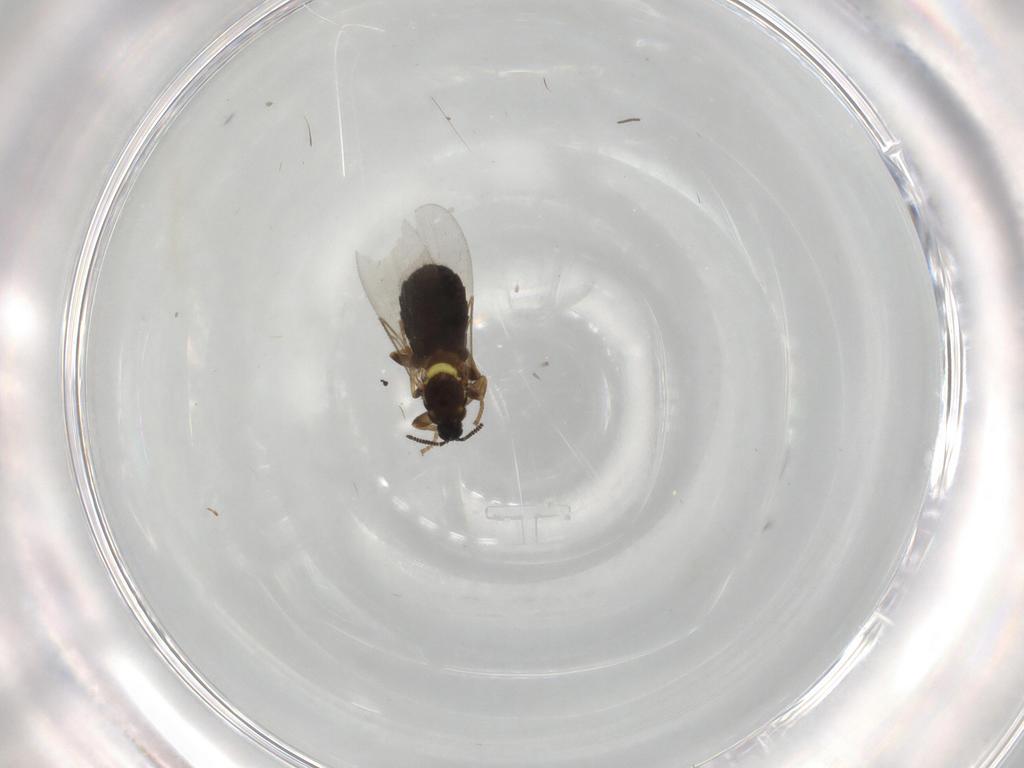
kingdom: Animalia
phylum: Arthropoda
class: Insecta
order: Diptera
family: Scatopsidae
